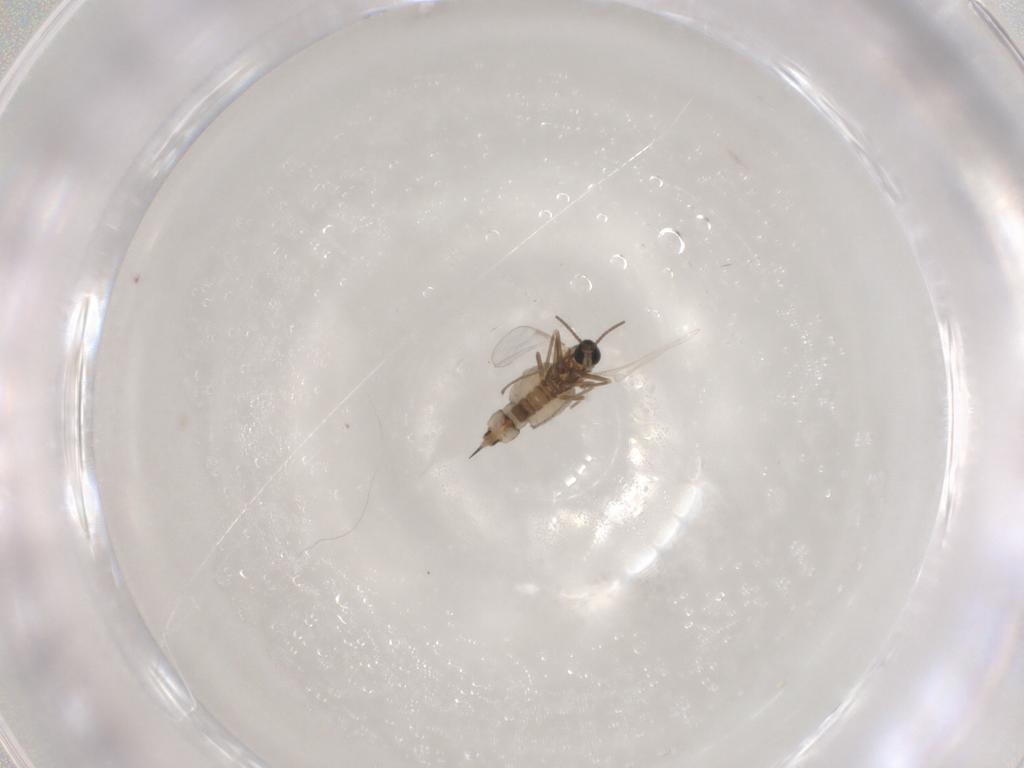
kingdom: Animalia
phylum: Arthropoda
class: Insecta
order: Diptera
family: Cecidomyiidae
